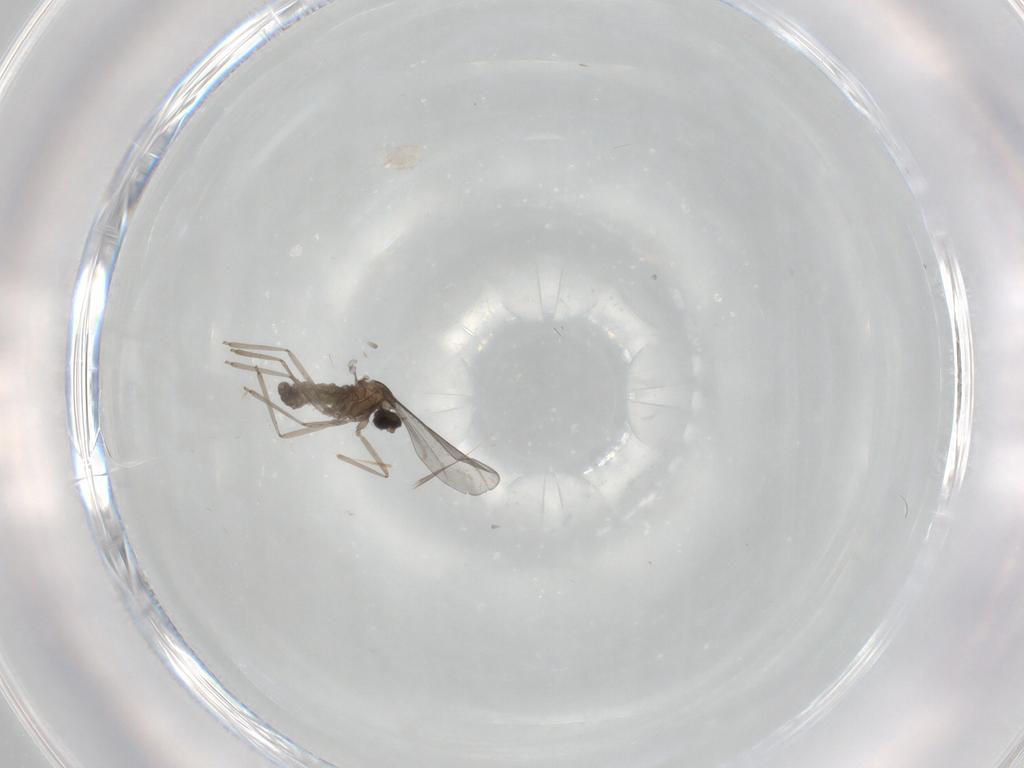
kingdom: Animalia
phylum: Arthropoda
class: Insecta
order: Diptera
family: Cecidomyiidae
